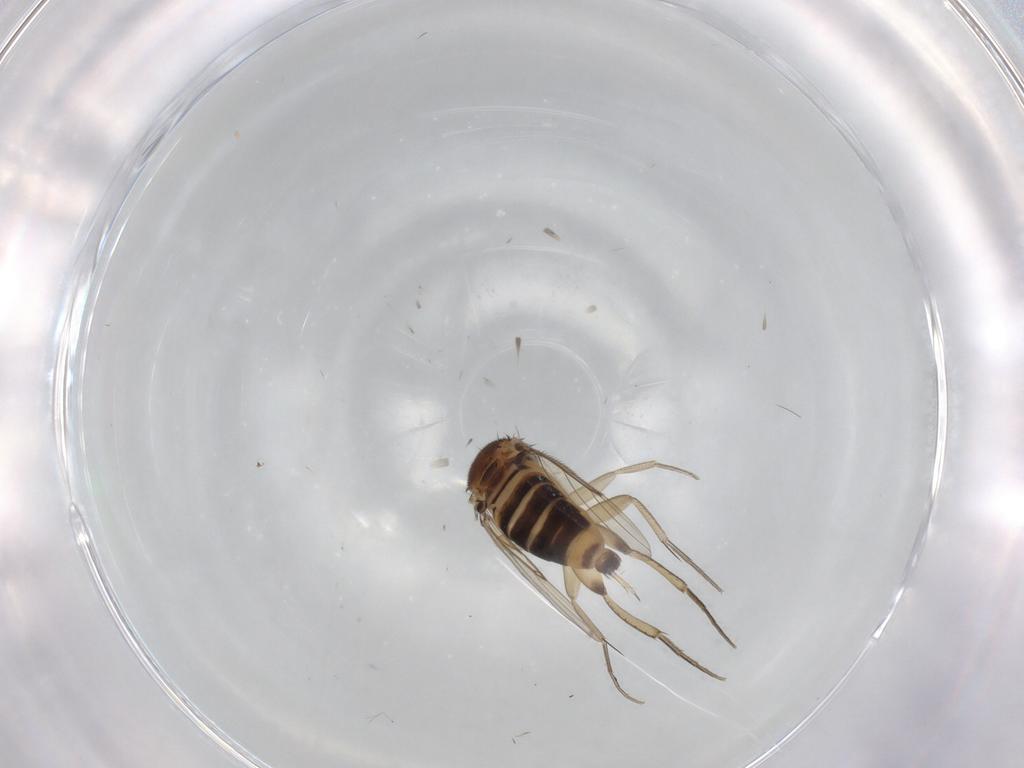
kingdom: Animalia
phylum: Arthropoda
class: Insecta
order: Diptera
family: Phoridae
